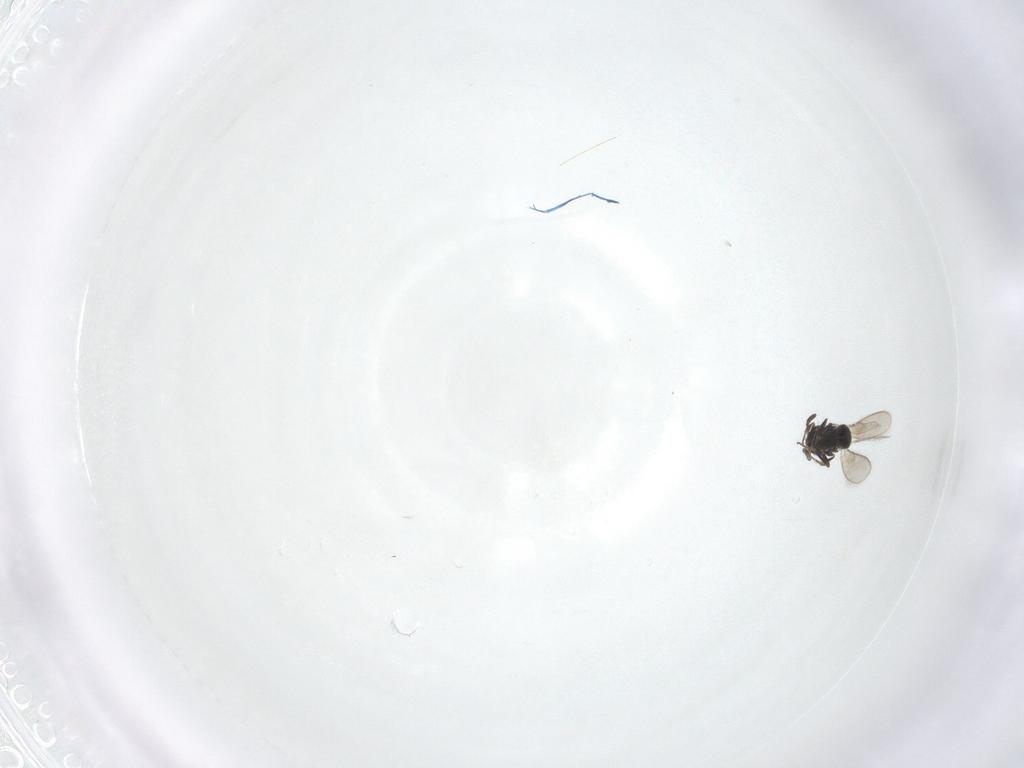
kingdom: Animalia
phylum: Arthropoda
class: Insecta
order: Hymenoptera
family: Scelionidae
